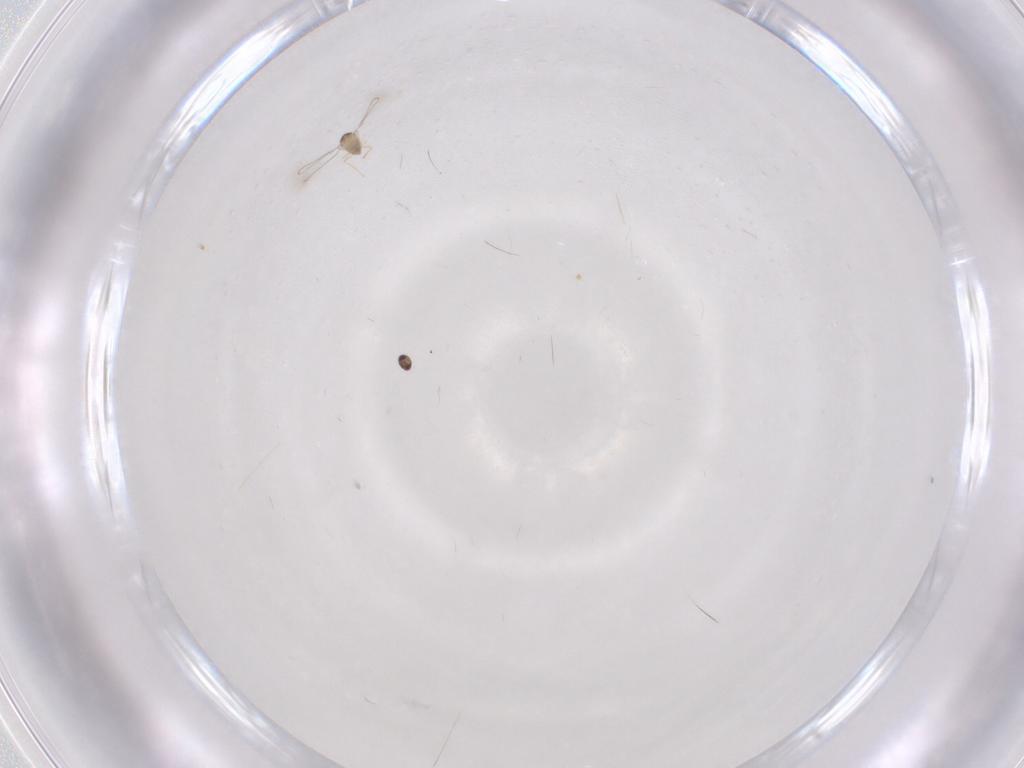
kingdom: Animalia
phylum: Arthropoda
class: Insecta
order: Diptera
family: Psychodidae
